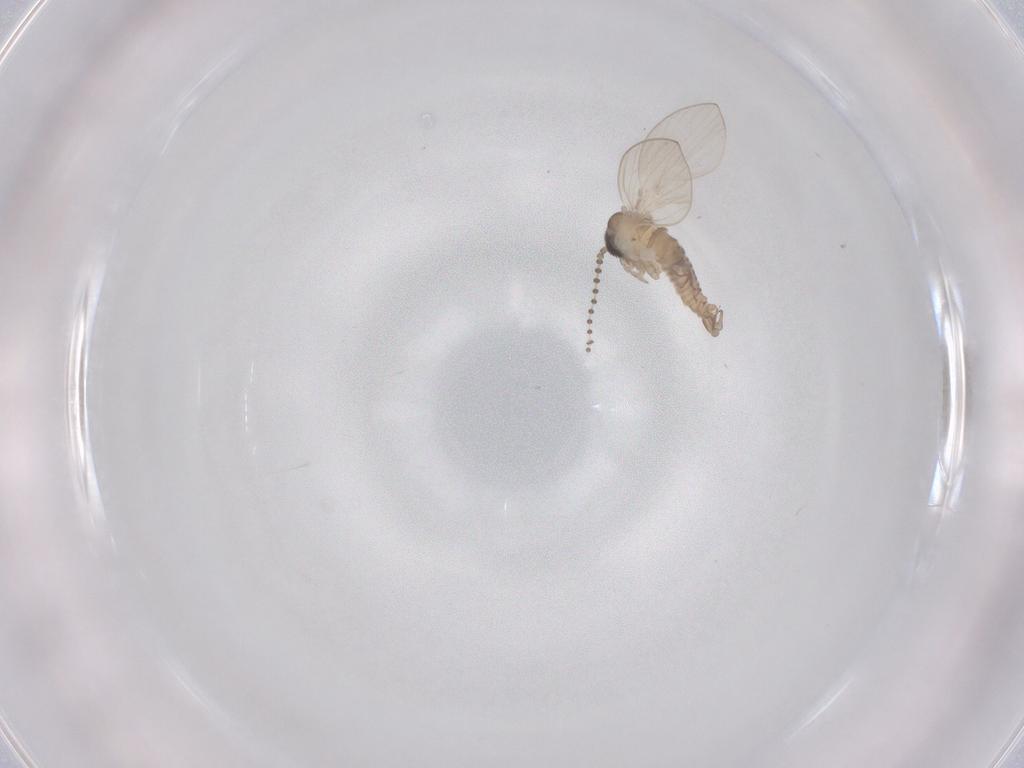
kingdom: Animalia
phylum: Arthropoda
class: Insecta
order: Diptera
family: Psychodidae
